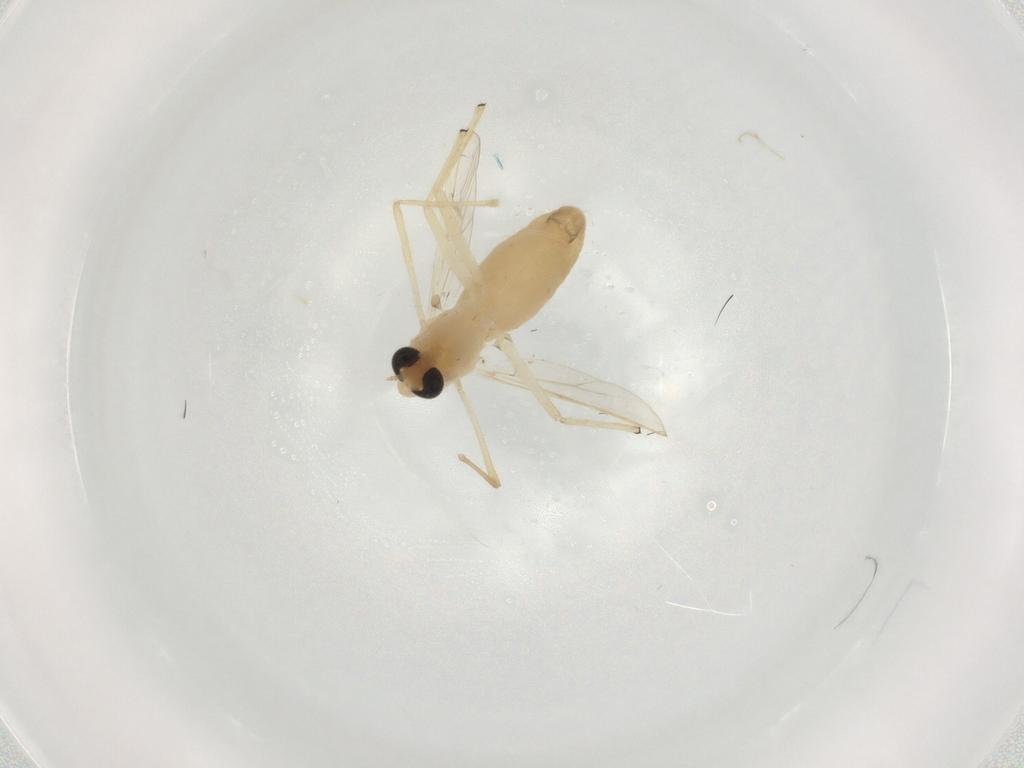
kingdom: Animalia
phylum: Arthropoda
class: Insecta
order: Diptera
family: Chironomidae
